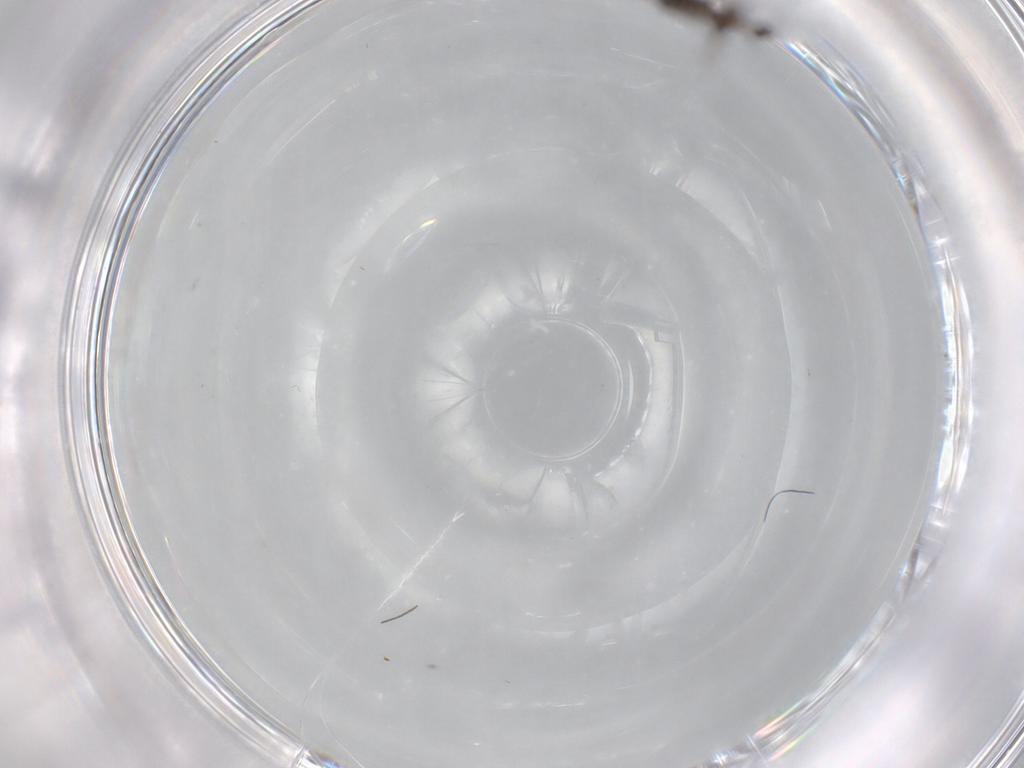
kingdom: Animalia
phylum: Arthropoda
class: Insecta
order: Diptera
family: Chironomidae
